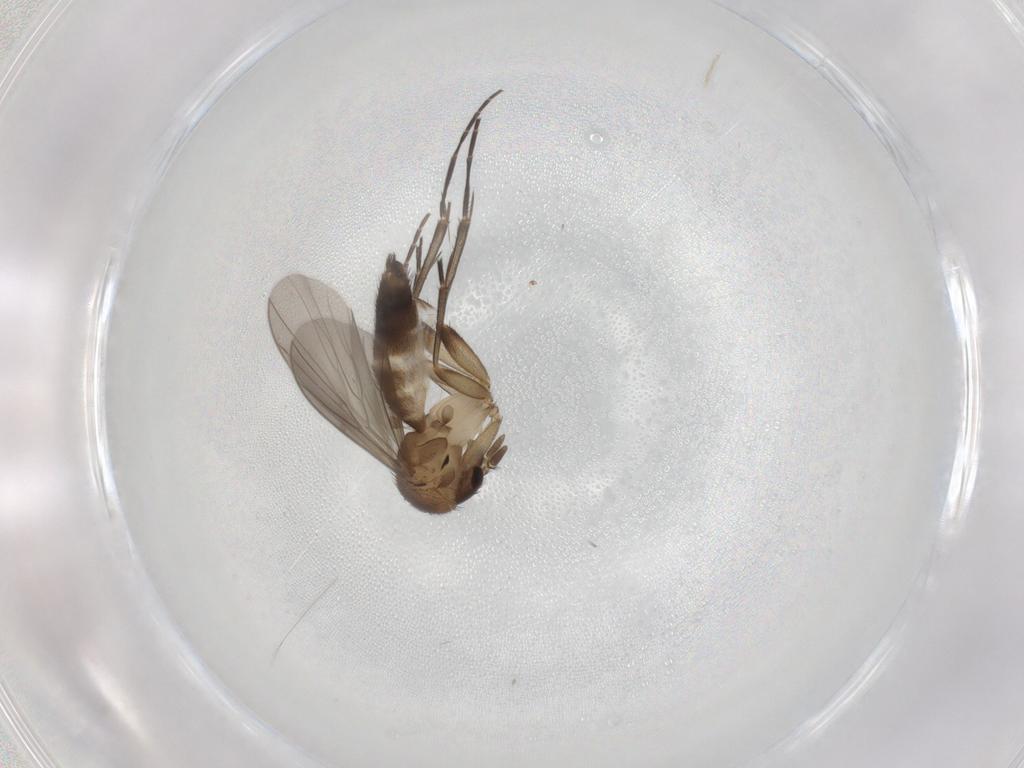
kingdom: Animalia
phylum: Arthropoda
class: Insecta
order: Diptera
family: Mycetophilidae
